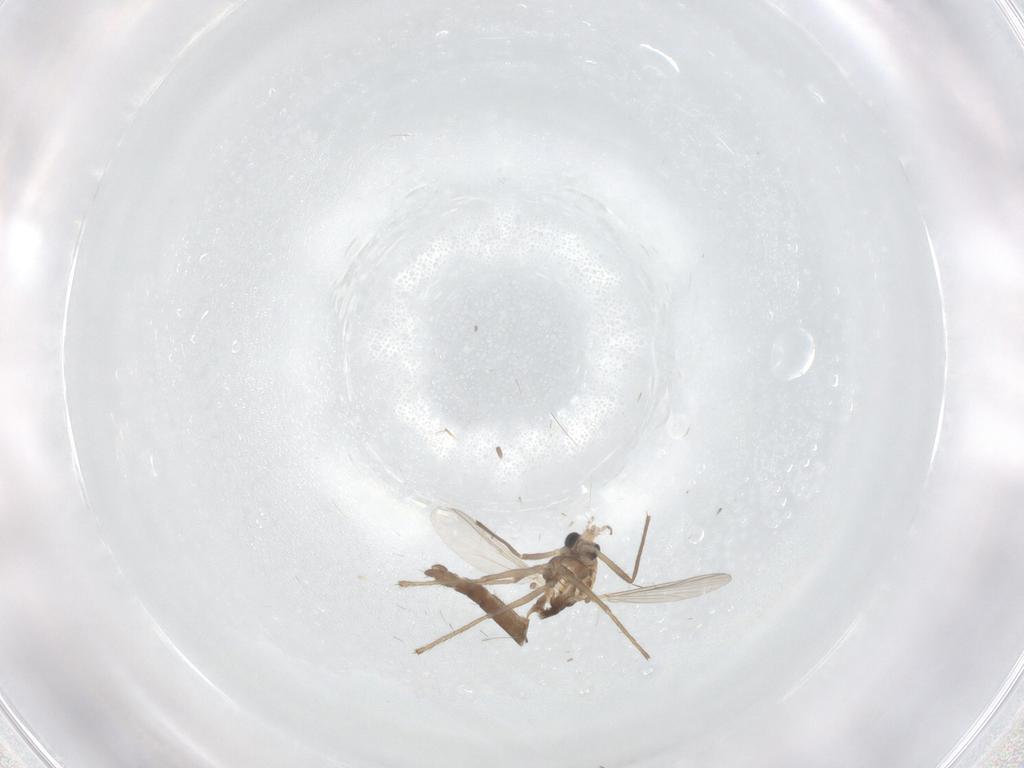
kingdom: Animalia
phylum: Arthropoda
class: Insecta
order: Diptera
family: Chironomidae
